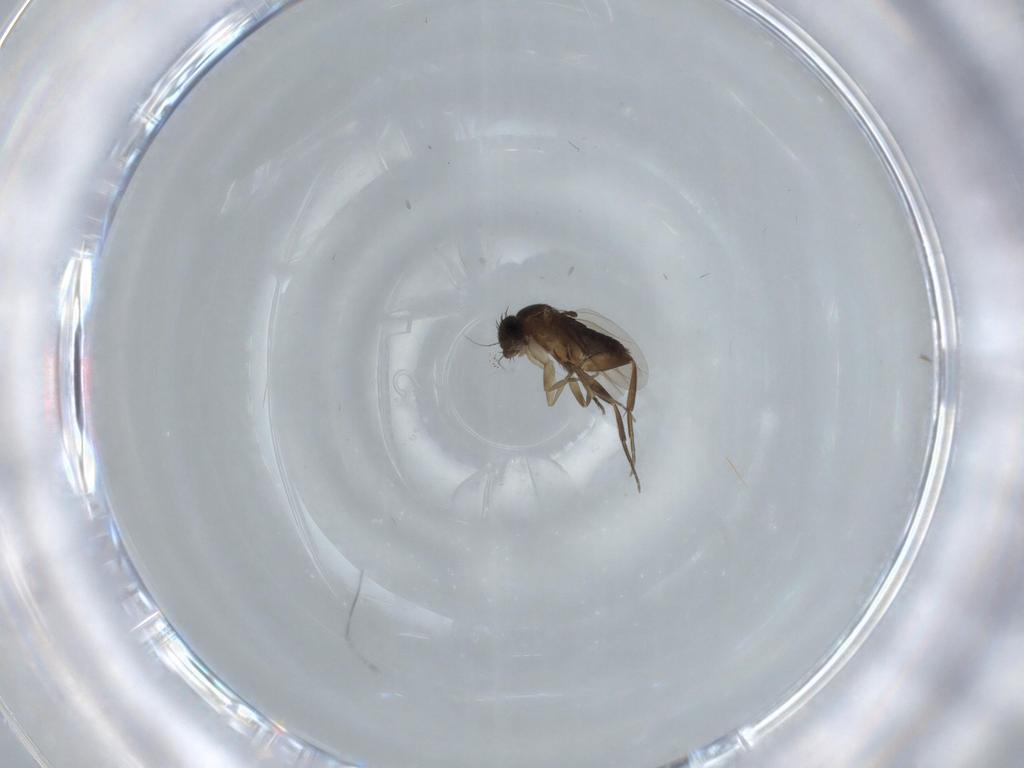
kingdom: Animalia
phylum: Arthropoda
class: Insecta
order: Diptera
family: Phoridae
